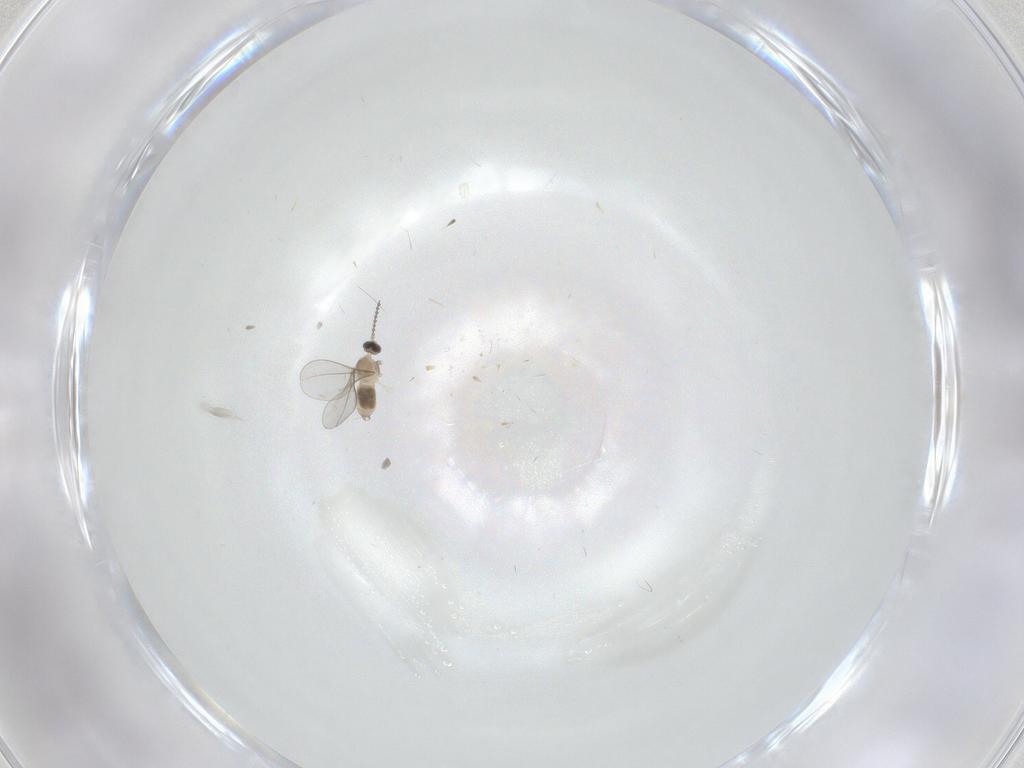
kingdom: Animalia
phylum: Arthropoda
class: Insecta
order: Diptera
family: Cecidomyiidae
